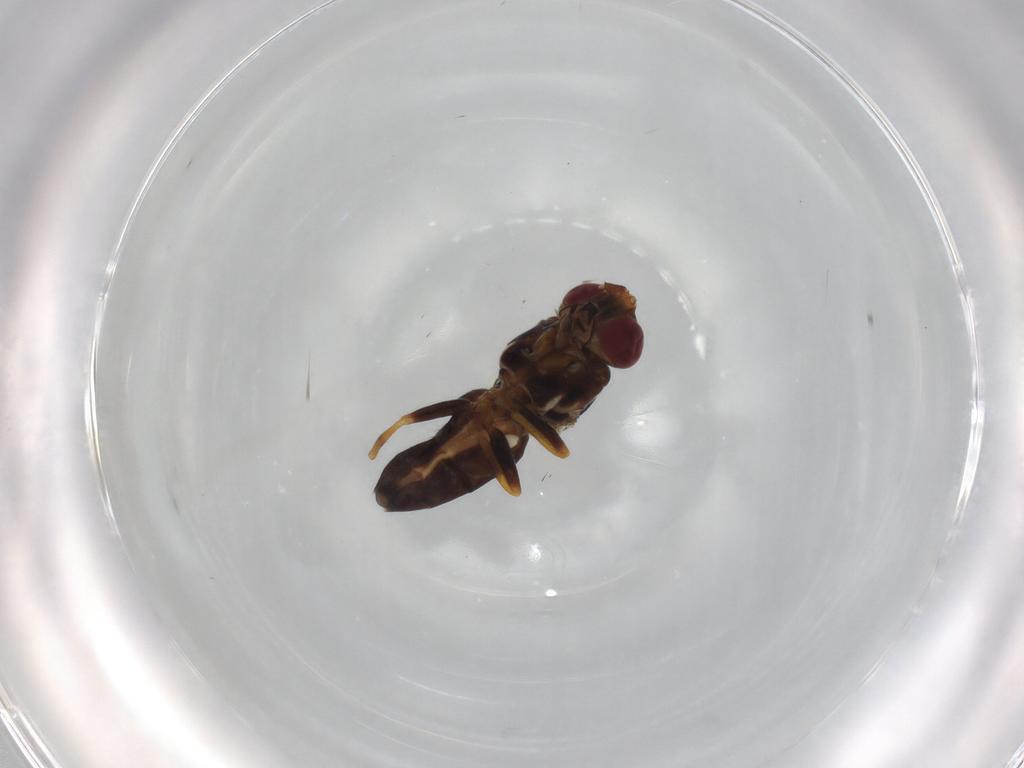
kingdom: Animalia
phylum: Arthropoda
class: Insecta
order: Diptera
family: Chloropidae
